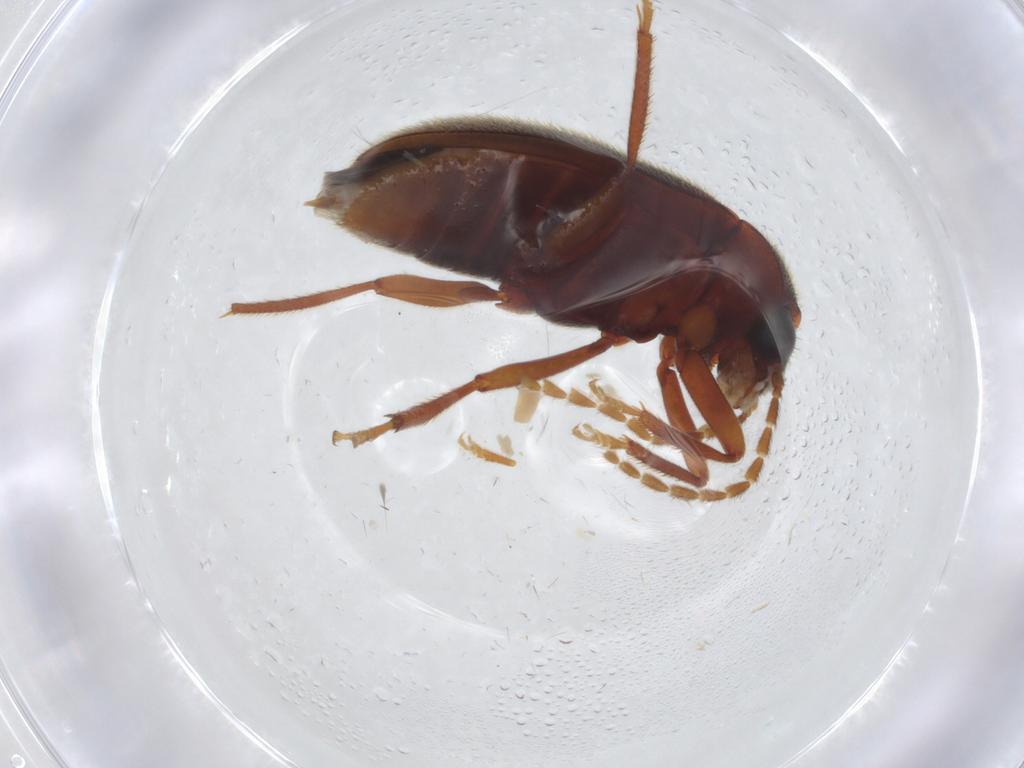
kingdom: Animalia
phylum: Arthropoda
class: Insecta
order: Coleoptera
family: Ptilodactylidae
